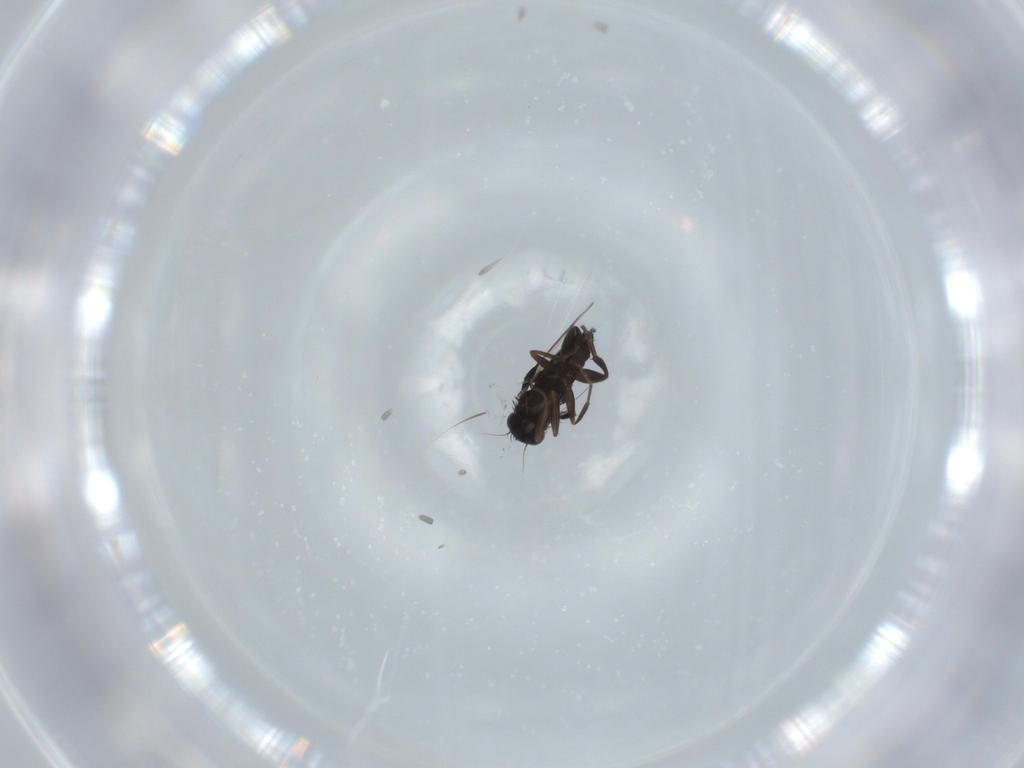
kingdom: Animalia
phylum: Arthropoda
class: Insecta
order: Diptera
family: Phoridae
